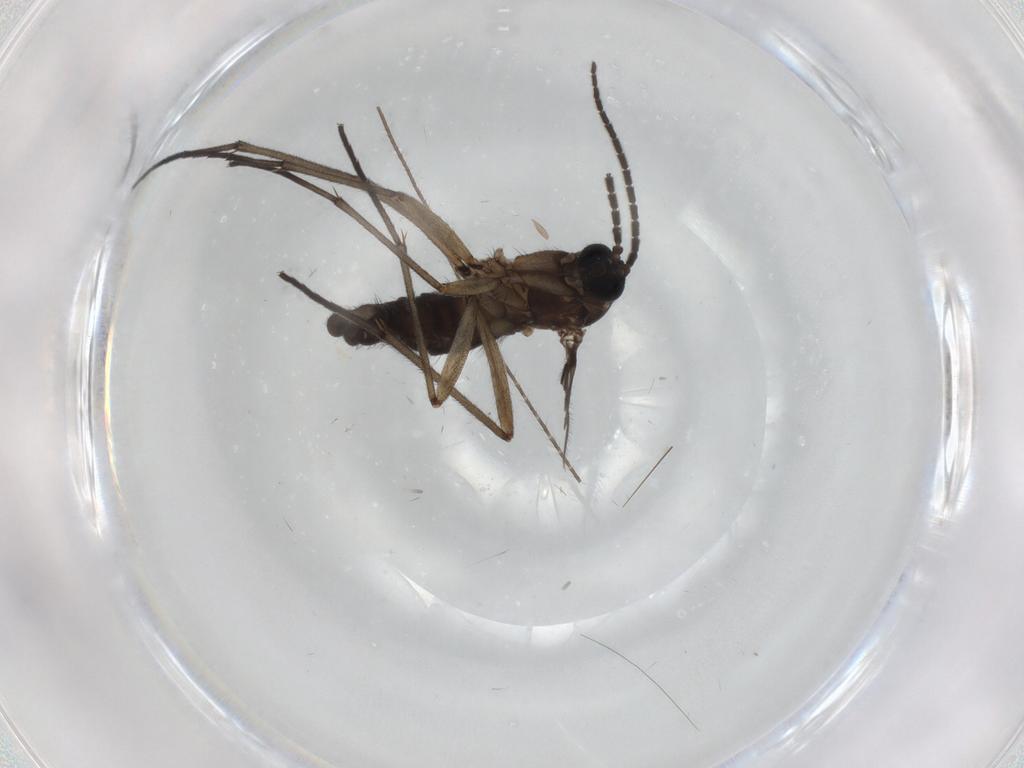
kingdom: Animalia
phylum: Arthropoda
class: Insecta
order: Diptera
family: Sciaridae
